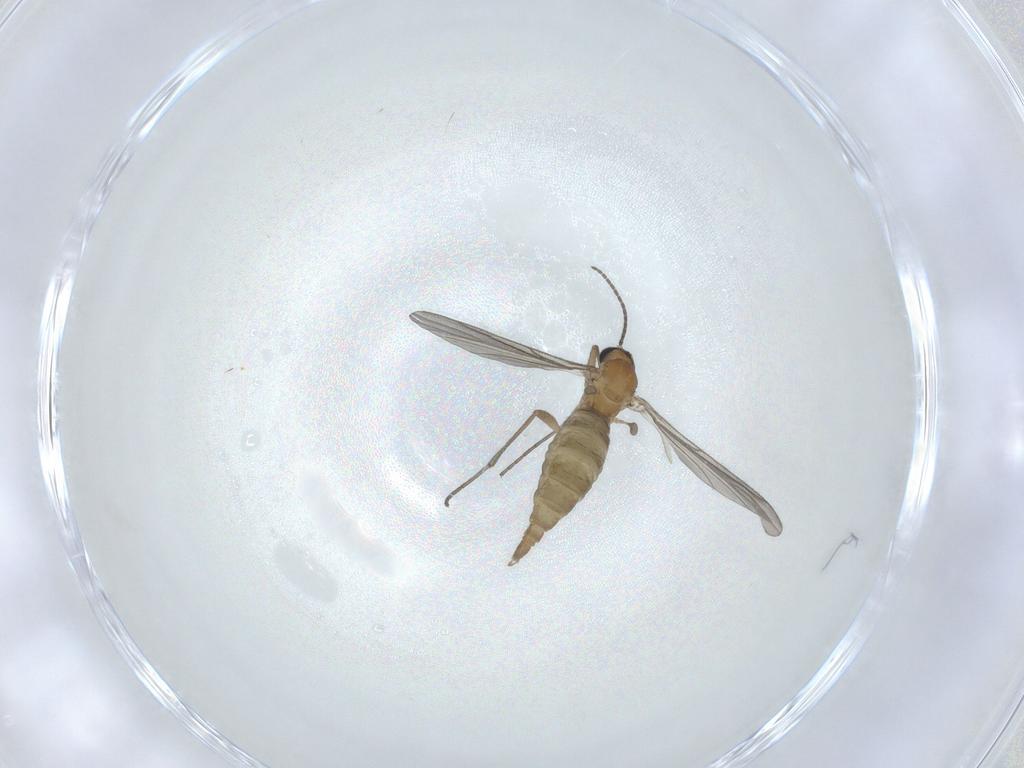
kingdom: Animalia
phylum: Arthropoda
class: Insecta
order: Diptera
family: Sciaridae
